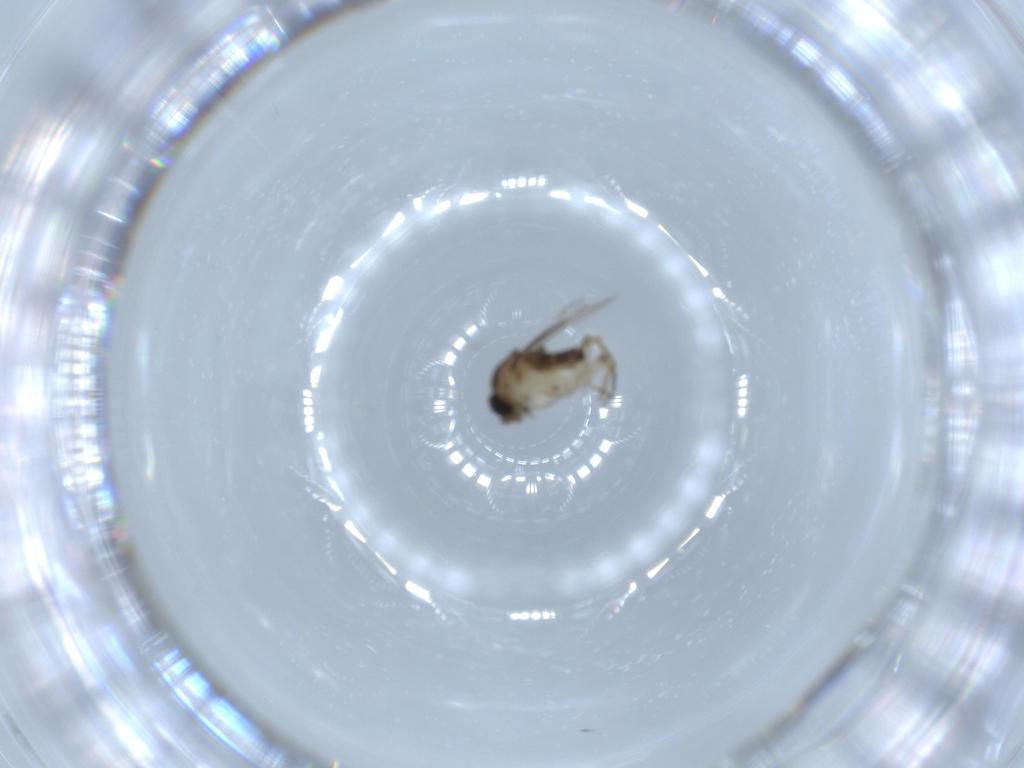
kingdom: Animalia
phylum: Arthropoda
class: Insecta
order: Diptera
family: Phoridae
